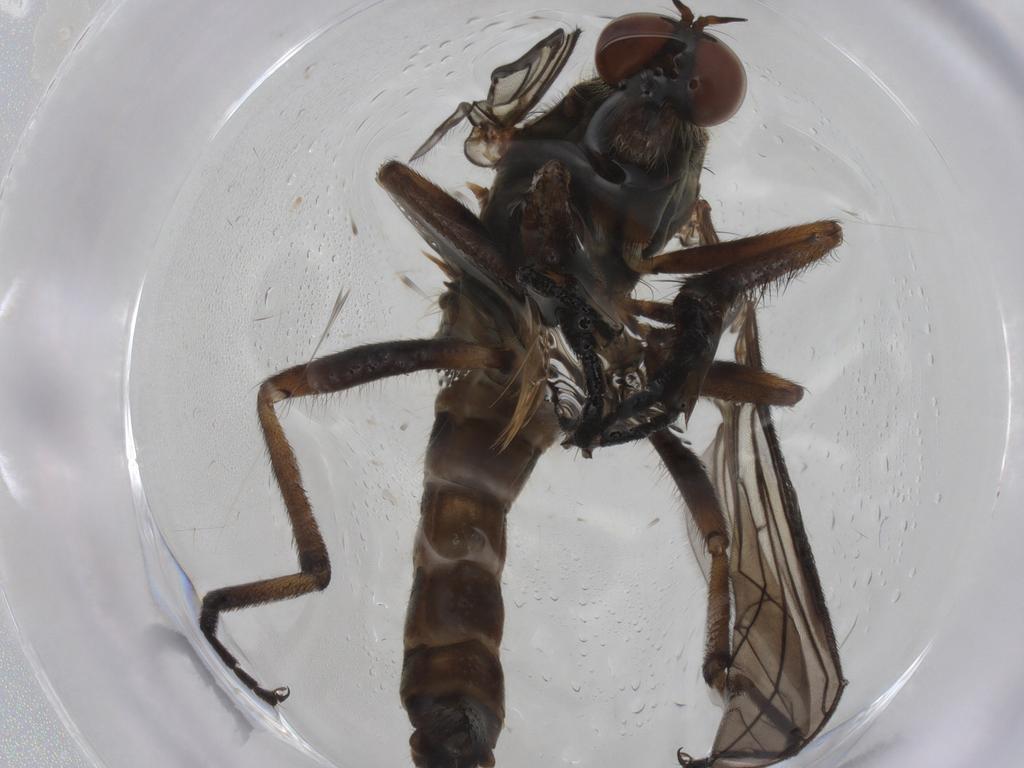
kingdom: Animalia
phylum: Arthropoda
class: Insecta
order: Diptera
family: Empididae
